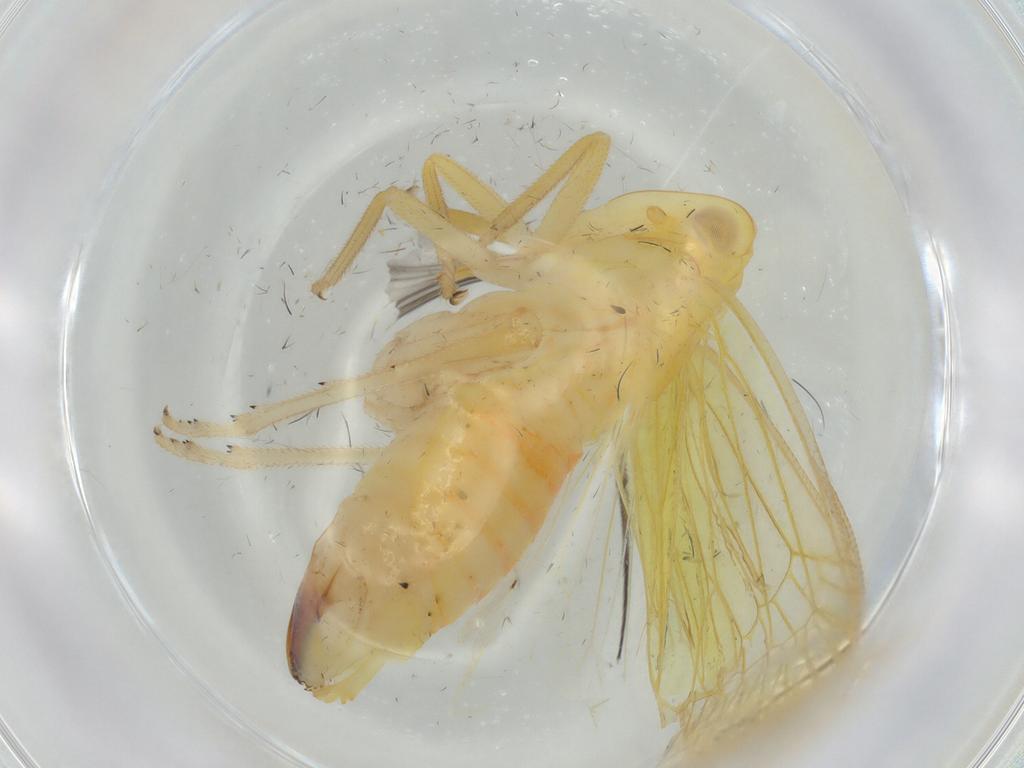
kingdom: Animalia
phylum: Arthropoda
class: Insecta
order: Hemiptera
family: Tropiduchidae
